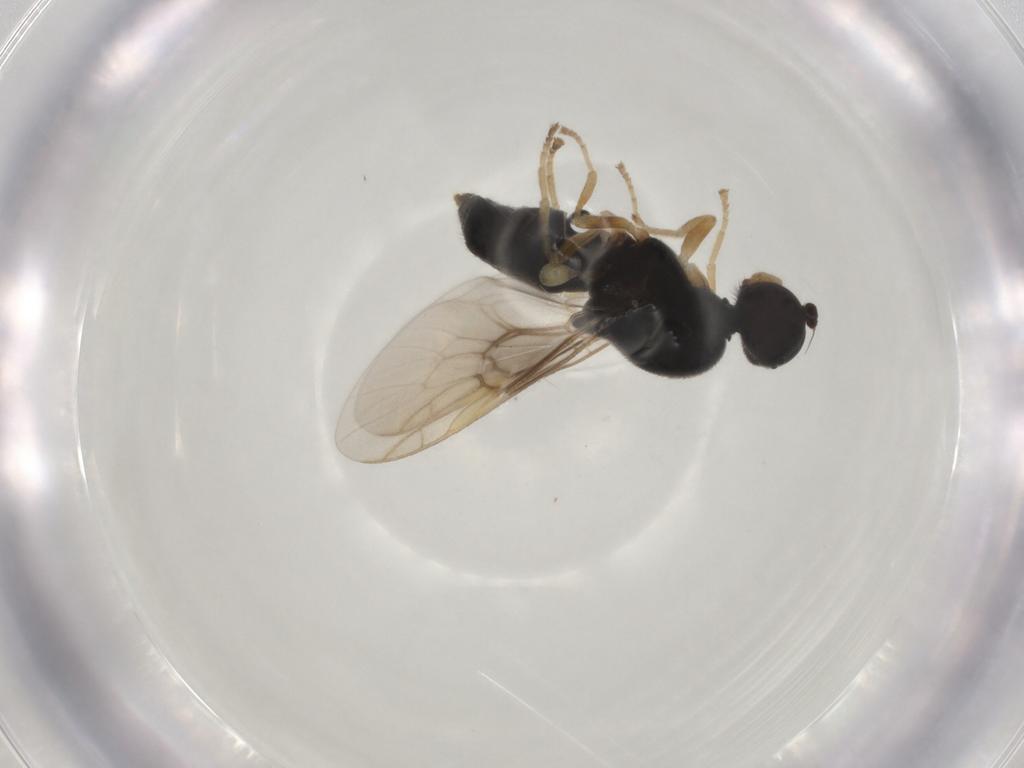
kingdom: Animalia
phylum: Arthropoda
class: Insecta
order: Diptera
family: Stratiomyidae
